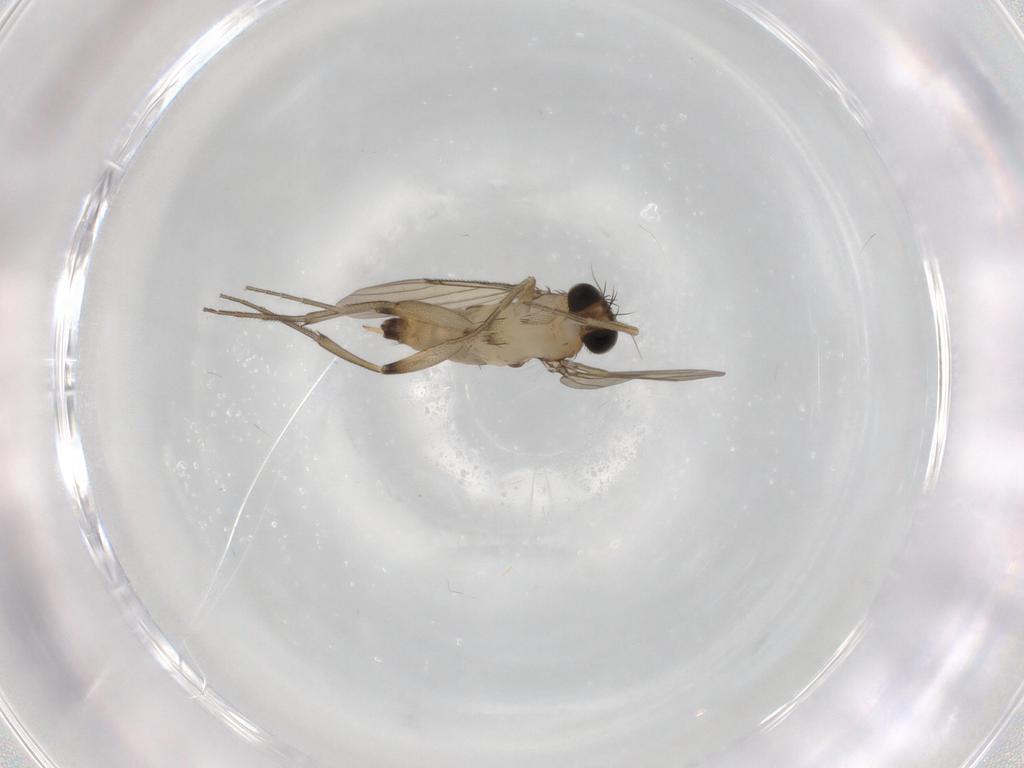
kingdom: Animalia
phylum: Arthropoda
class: Insecta
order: Diptera
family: Phoridae
